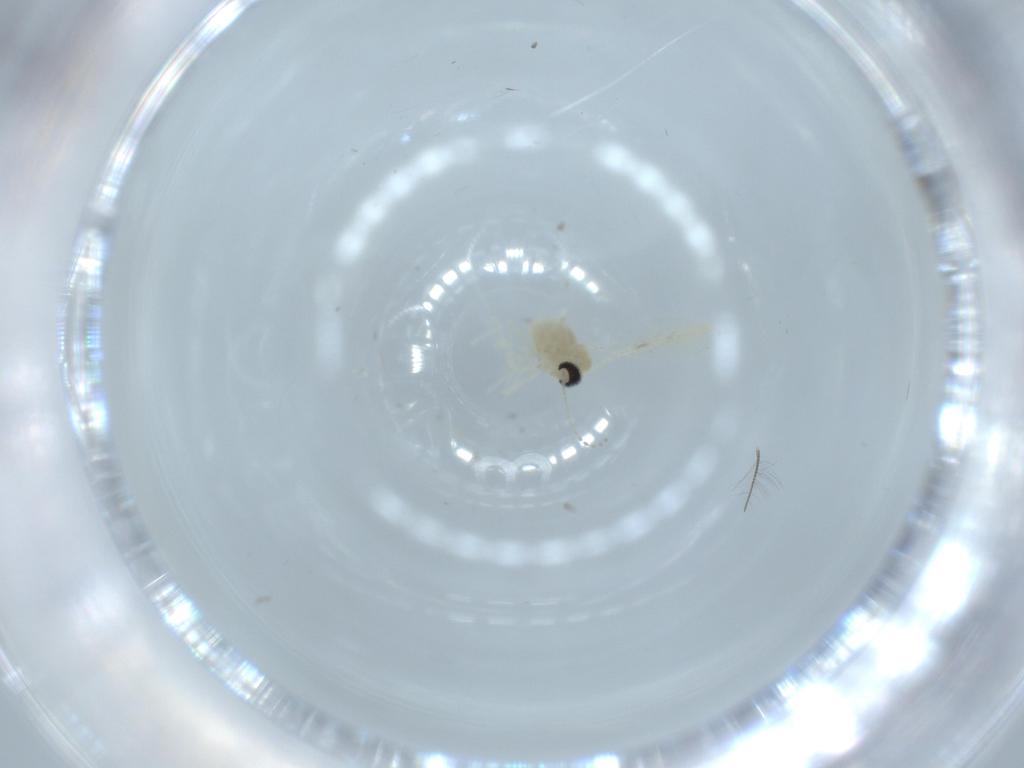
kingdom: Animalia
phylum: Arthropoda
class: Insecta
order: Diptera
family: Cecidomyiidae
